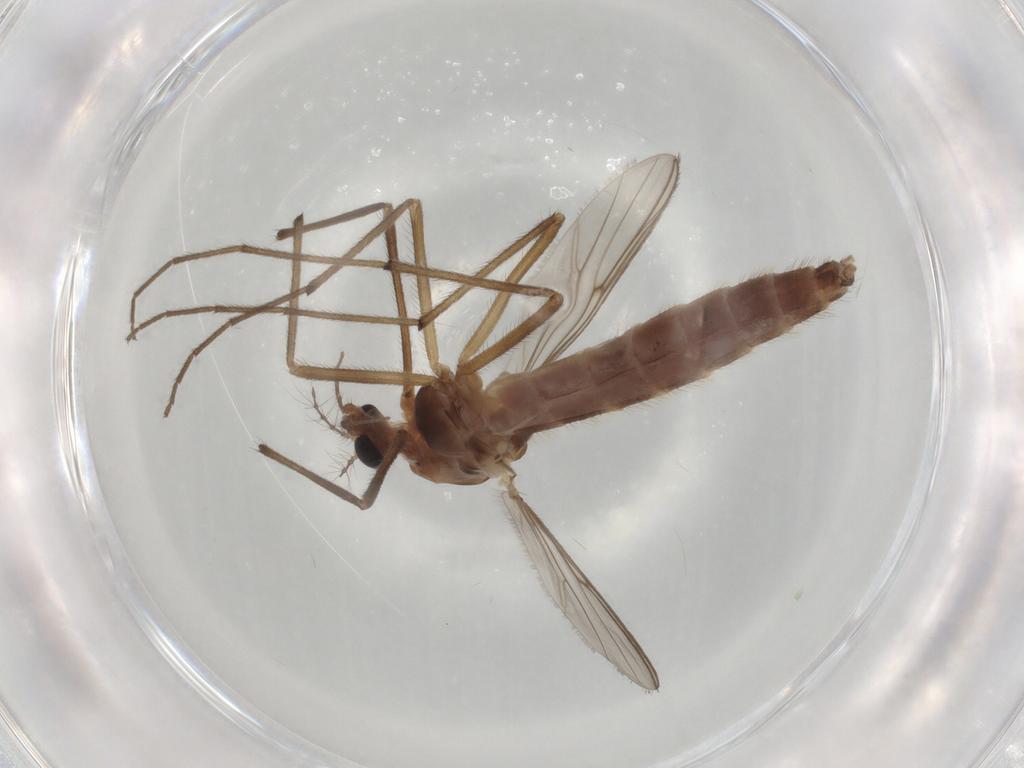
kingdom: Animalia
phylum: Arthropoda
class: Insecta
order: Diptera
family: Chironomidae
